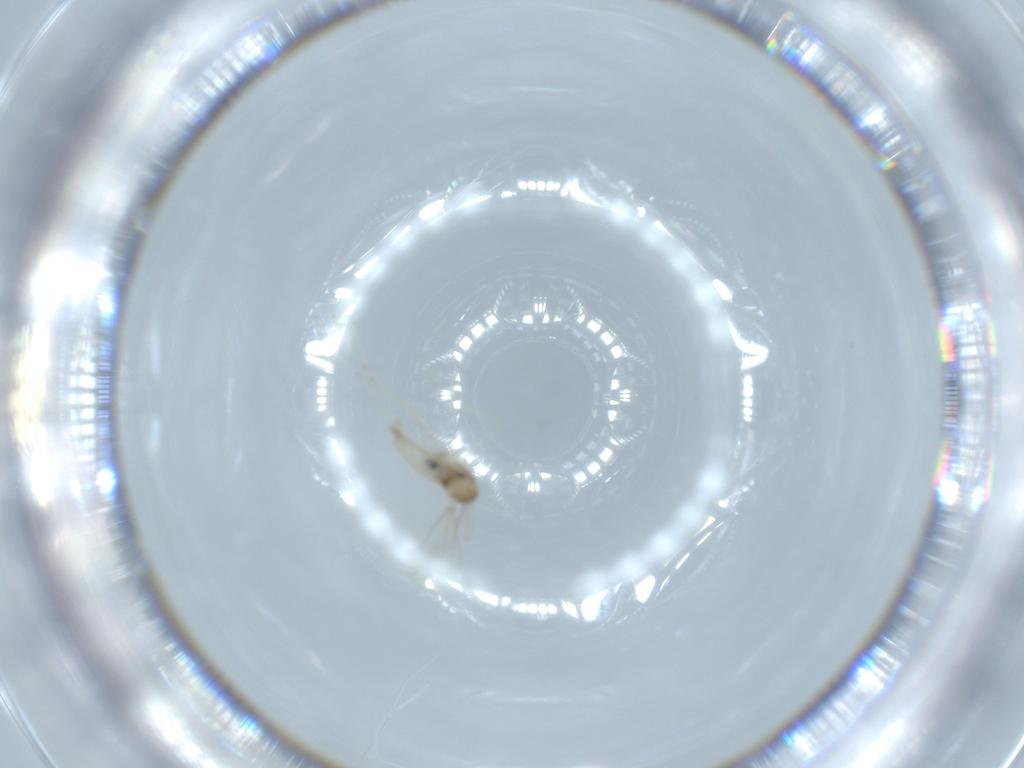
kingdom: Animalia
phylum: Arthropoda
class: Insecta
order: Diptera
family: Cecidomyiidae
